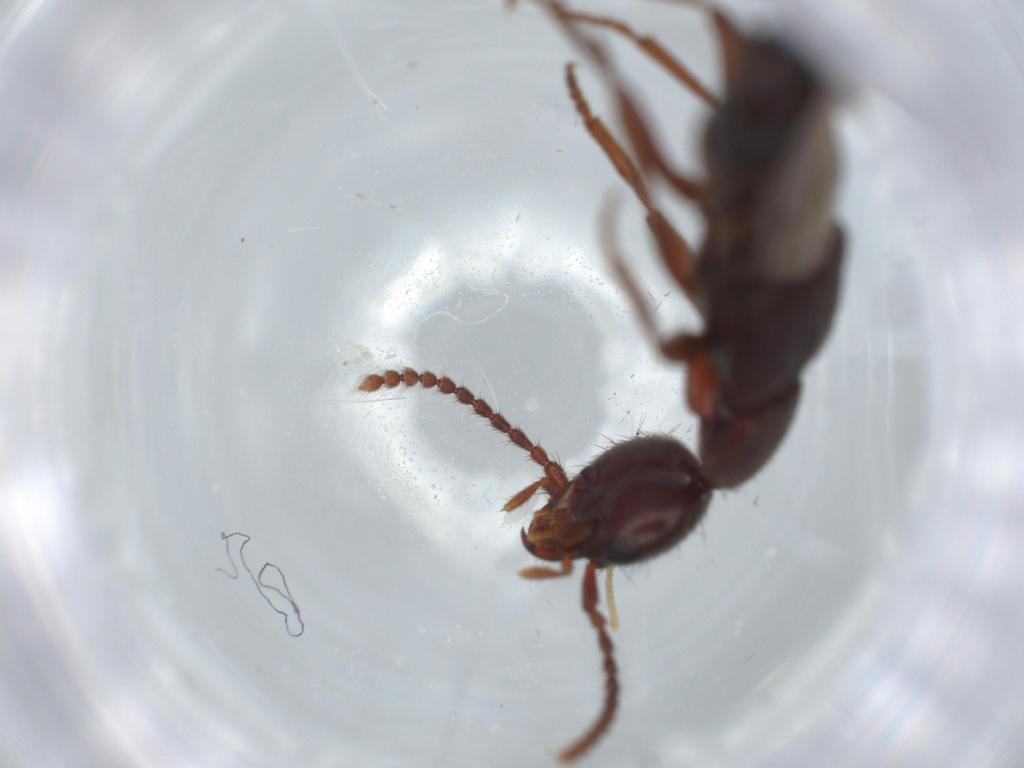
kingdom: Animalia
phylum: Arthropoda
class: Insecta
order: Coleoptera
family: Staphylinidae
